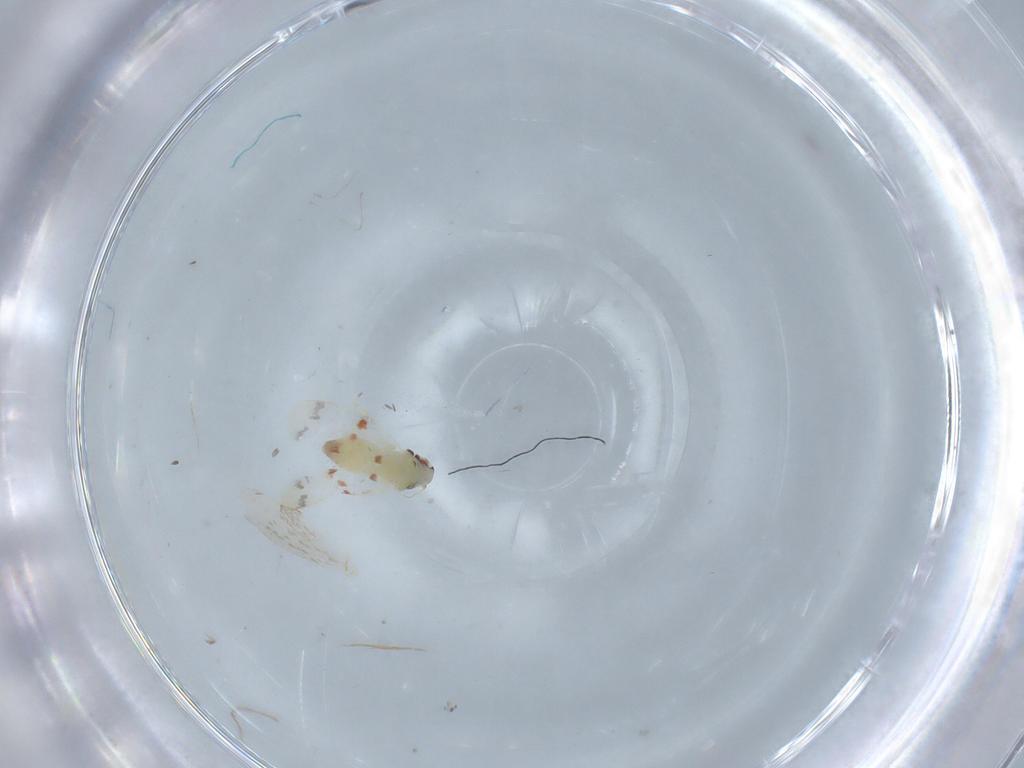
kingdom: Animalia
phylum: Arthropoda
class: Insecta
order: Hemiptera
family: Aleyrodidae
